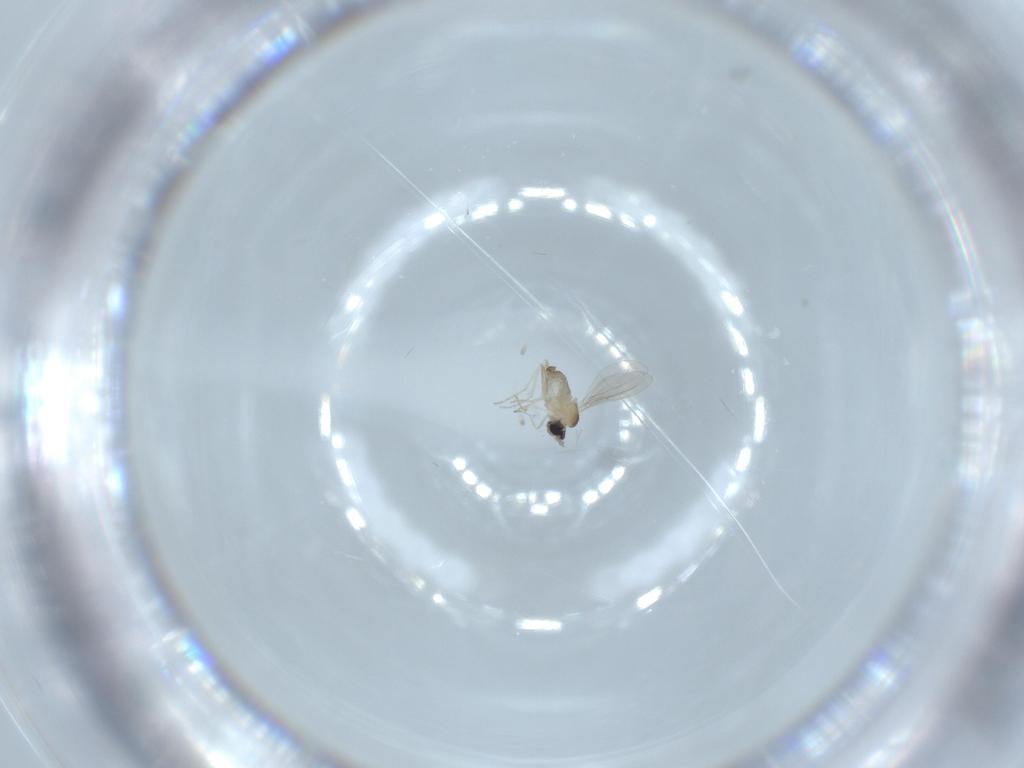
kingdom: Animalia
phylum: Arthropoda
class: Insecta
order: Diptera
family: Cecidomyiidae
